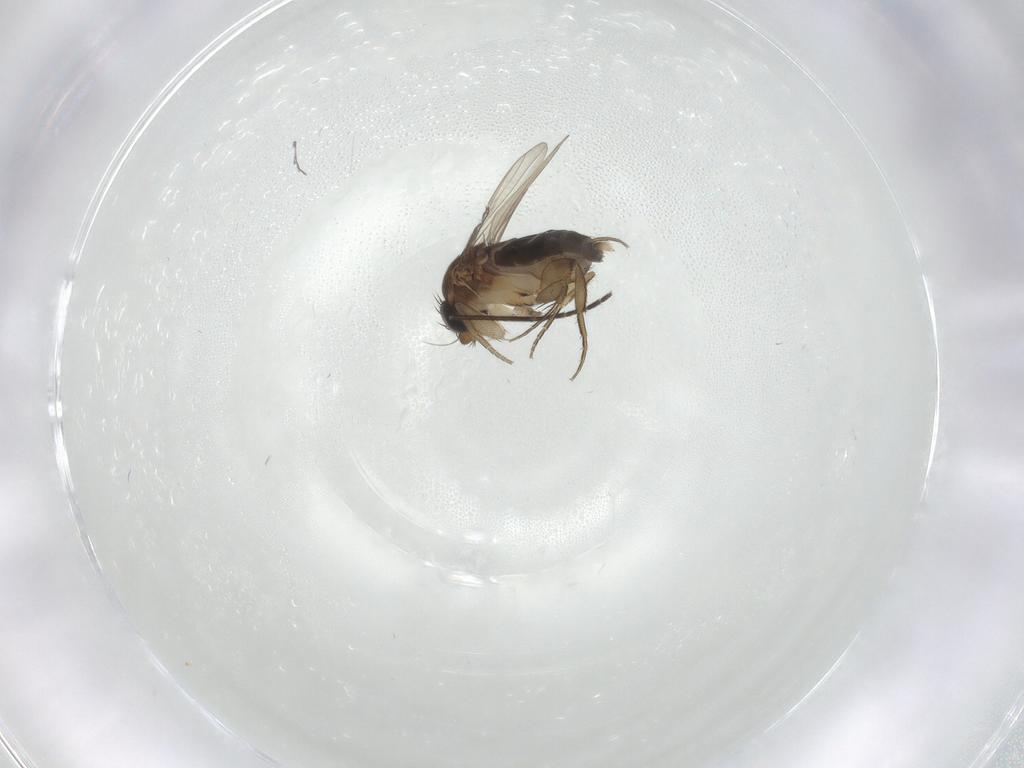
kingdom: Animalia
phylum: Arthropoda
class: Insecta
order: Diptera
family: Phoridae
